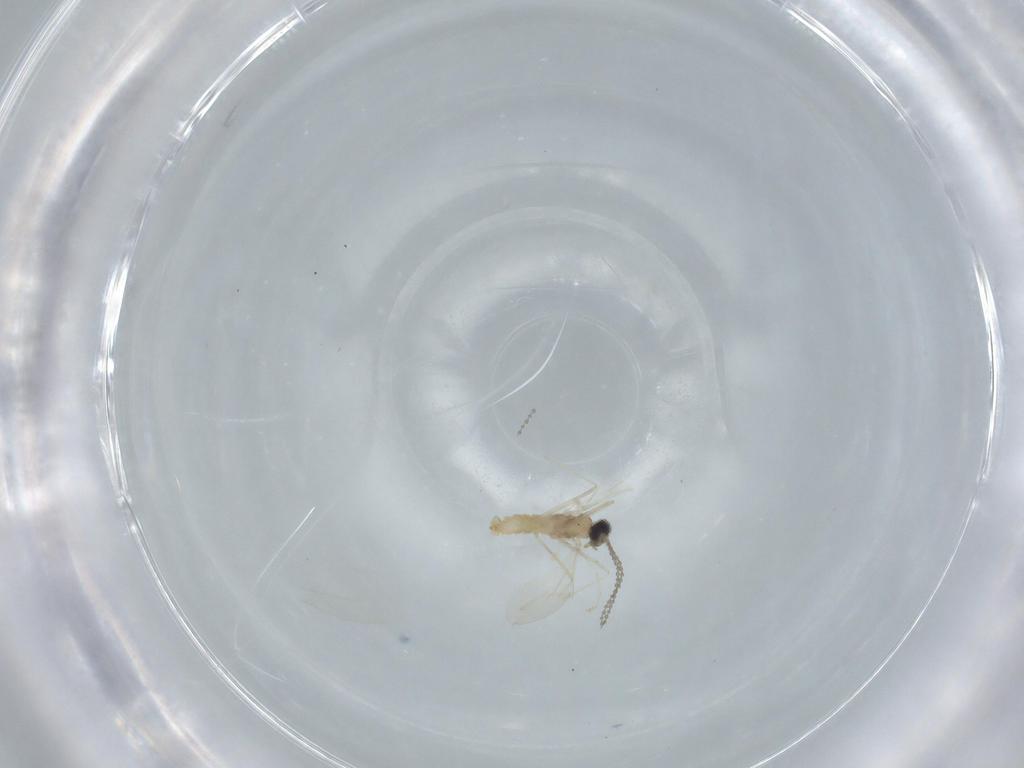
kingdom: Animalia
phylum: Arthropoda
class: Insecta
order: Diptera
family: Cecidomyiidae
